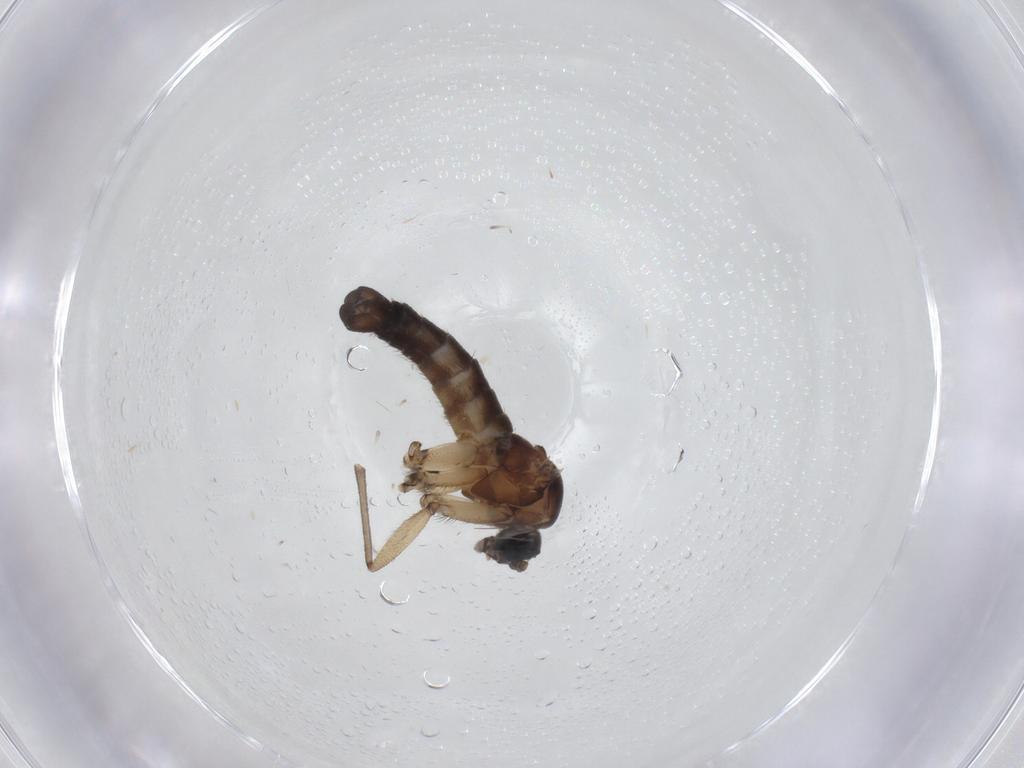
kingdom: Animalia
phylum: Arthropoda
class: Insecta
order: Diptera
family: Sciaridae
